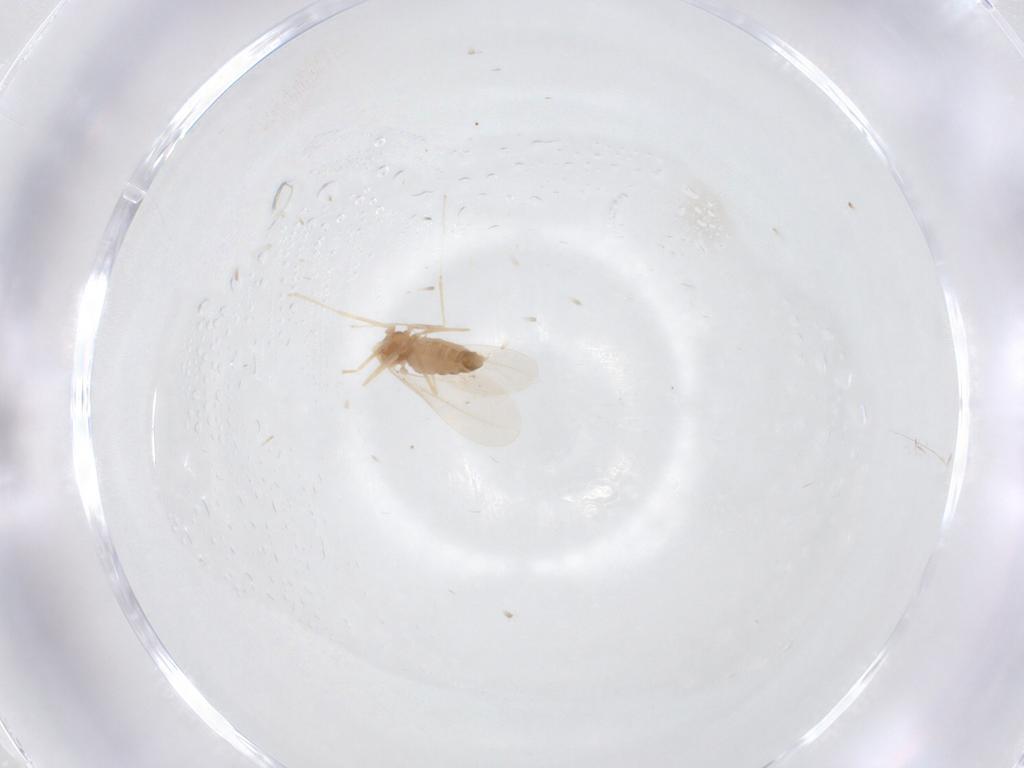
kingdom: Animalia
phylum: Arthropoda
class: Insecta
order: Diptera
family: Cecidomyiidae
